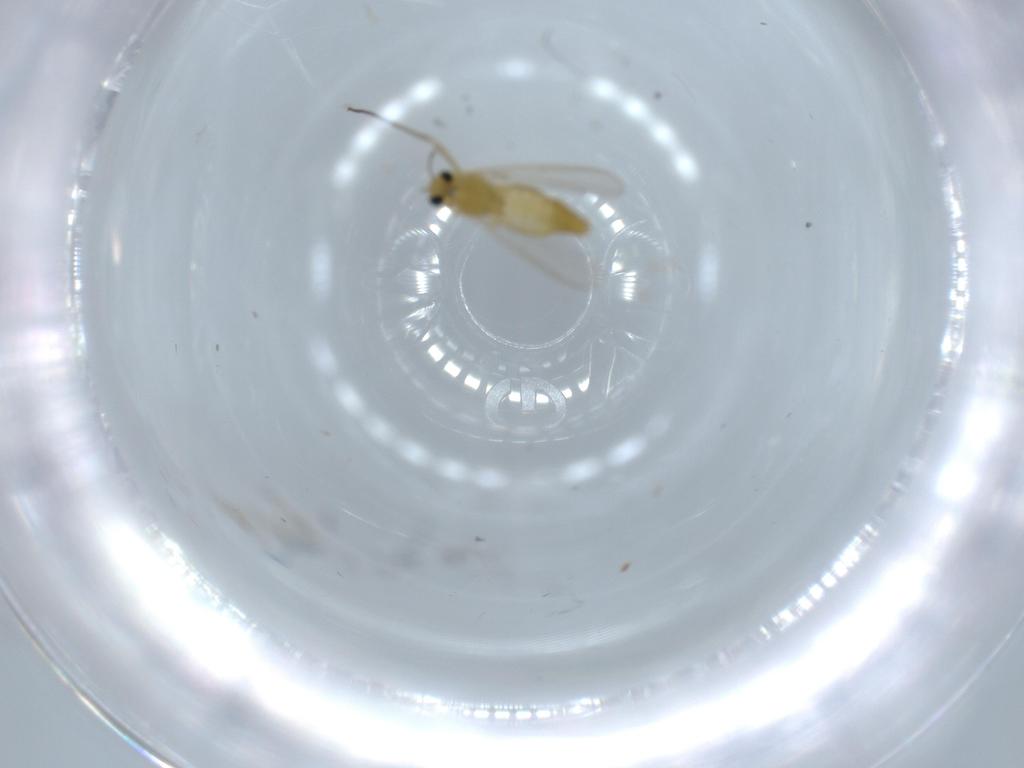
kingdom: Animalia
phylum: Arthropoda
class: Insecta
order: Diptera
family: Chironomidae
